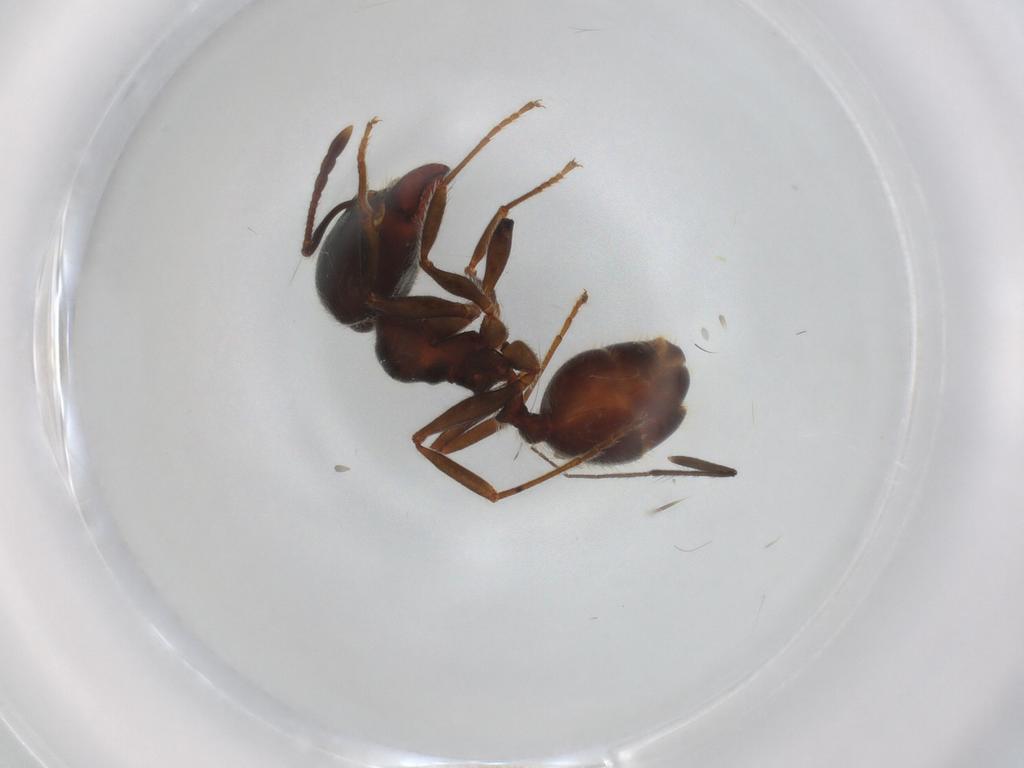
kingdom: Animalia
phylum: Arthropoda
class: Insecta
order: Hymenoptera
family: Formicidae
